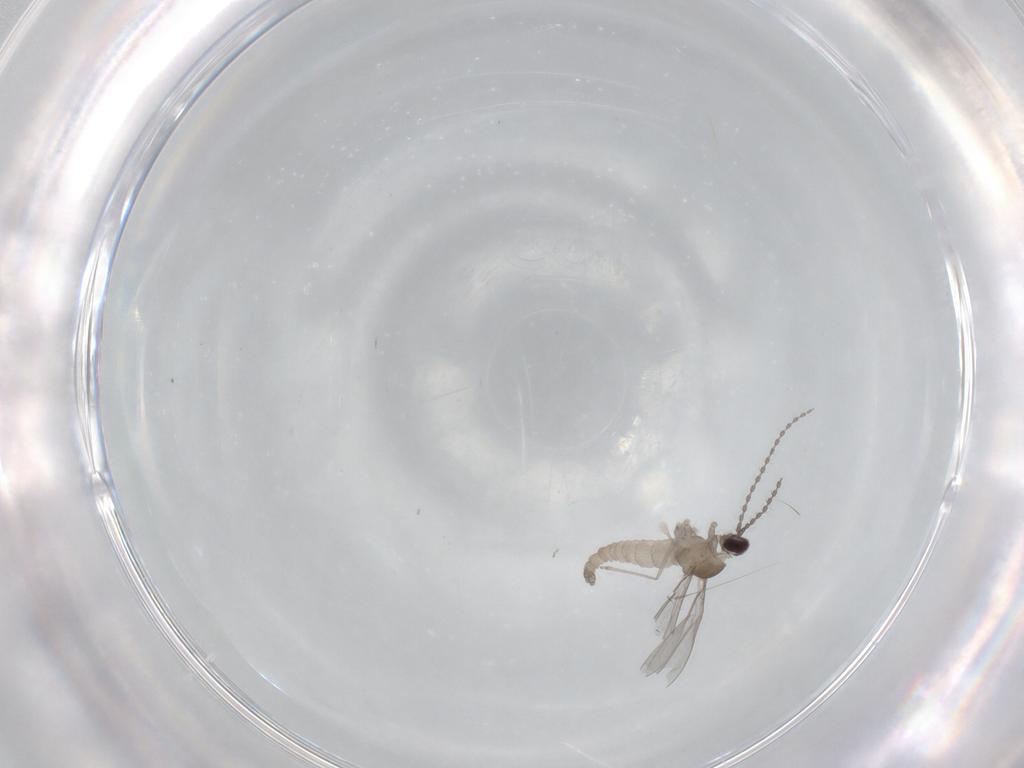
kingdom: Animalia
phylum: Arthropoda
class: Insecta
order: Diptera
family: Cecidomyiidae
